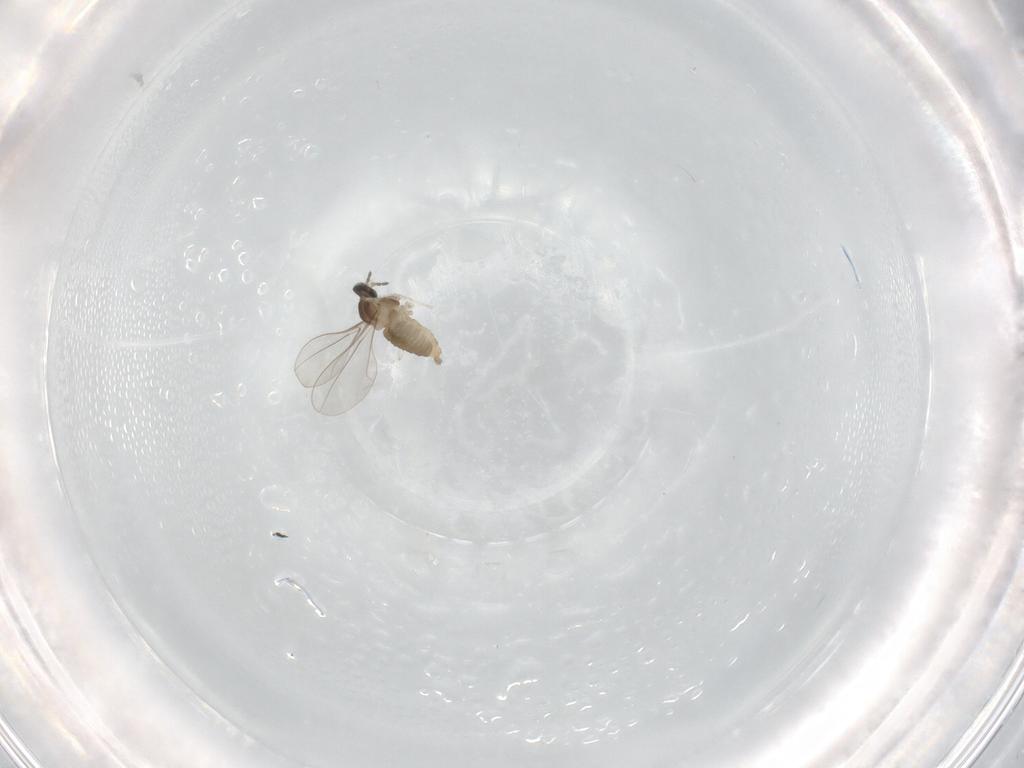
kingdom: Animalia
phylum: Arthropoda
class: Insecta
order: Diptera
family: Cecidomyiidae
